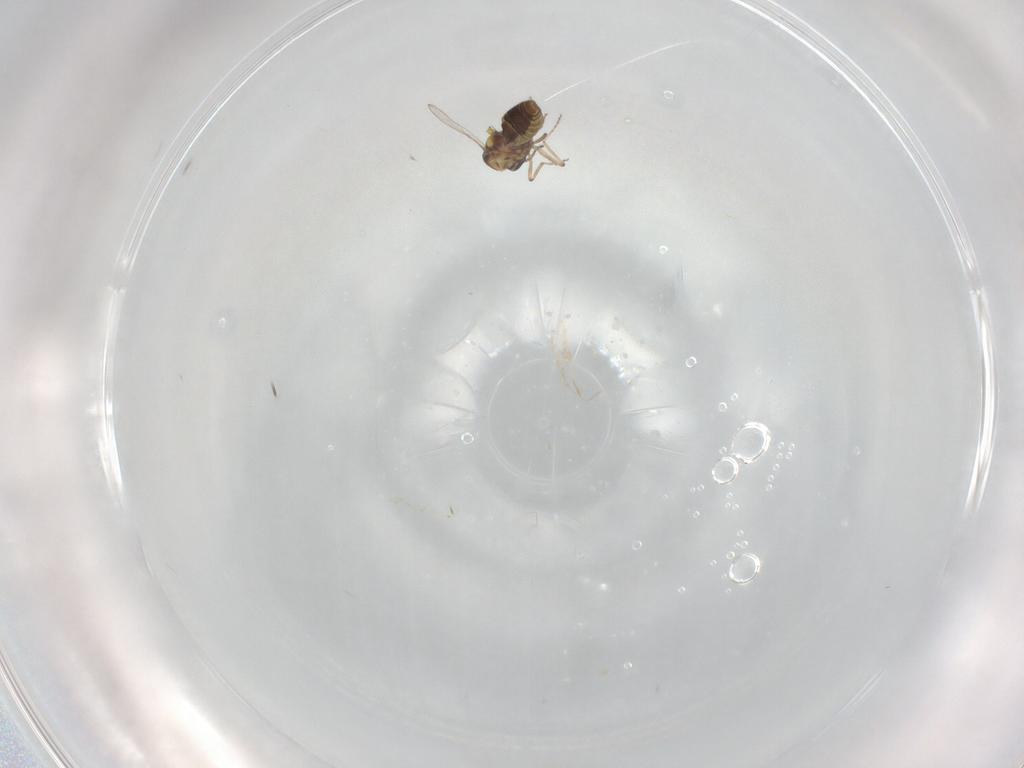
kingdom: Animalia
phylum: Arthropoda
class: Insecta
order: Diptera
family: Ceratopogonidae
